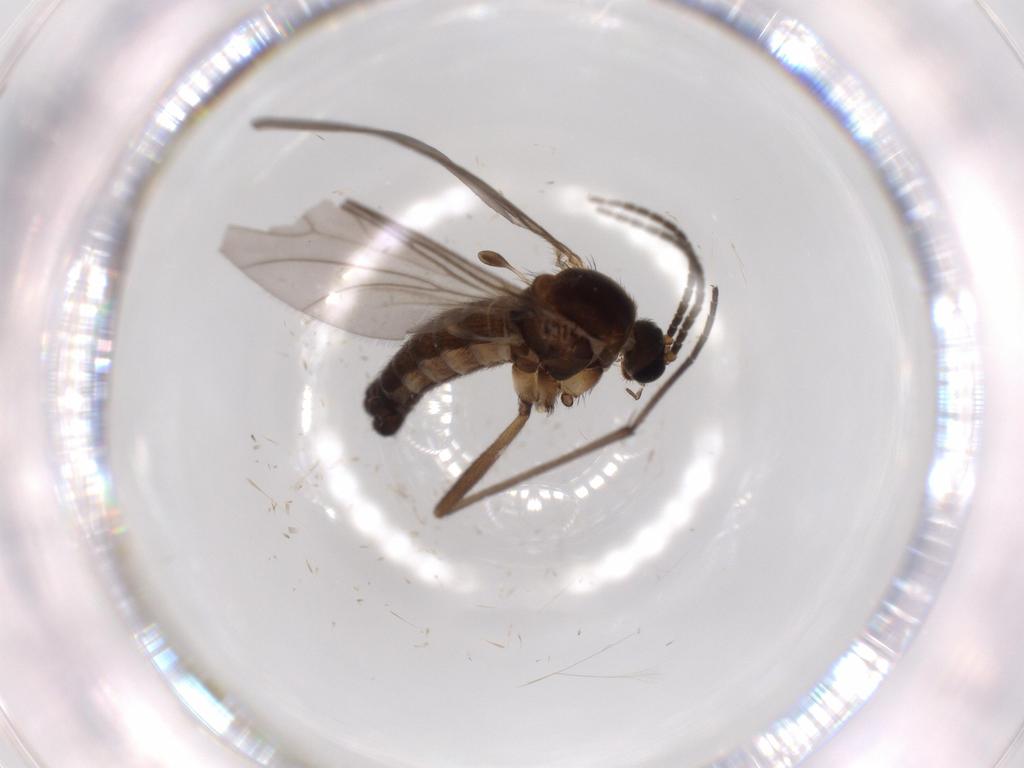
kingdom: Animalia
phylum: Arthropoda
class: Insecta
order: Diptera
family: Sciaridae
